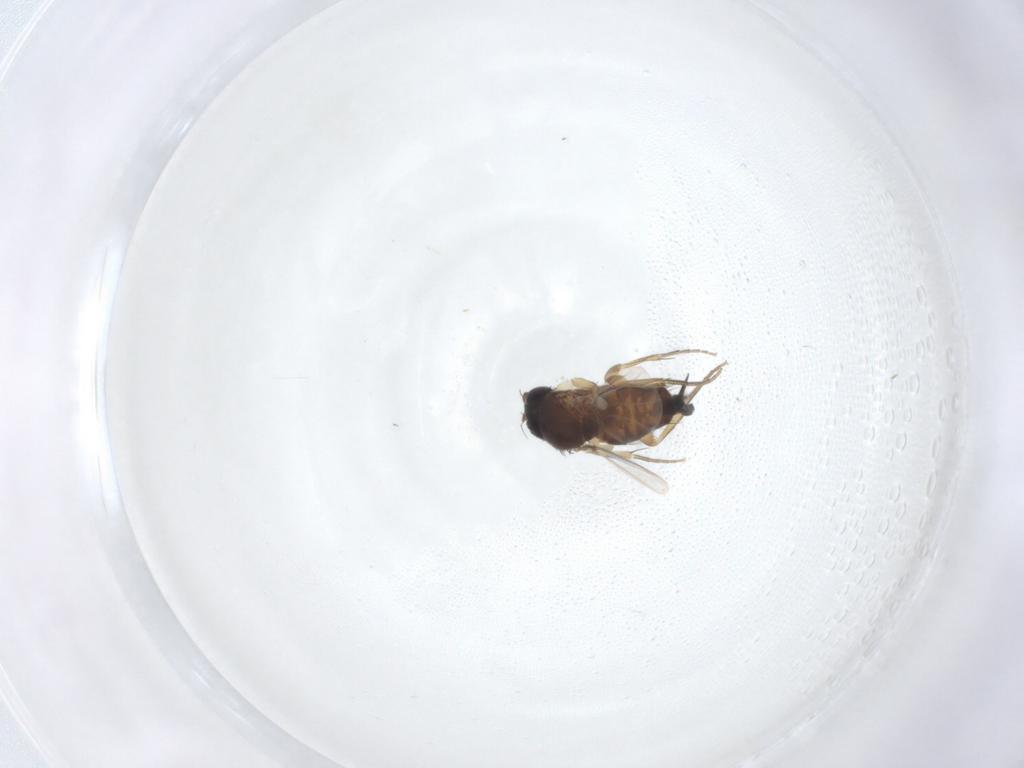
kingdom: Animalia
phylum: Arthropoda
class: Insecta
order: Diptera
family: Therevidae
